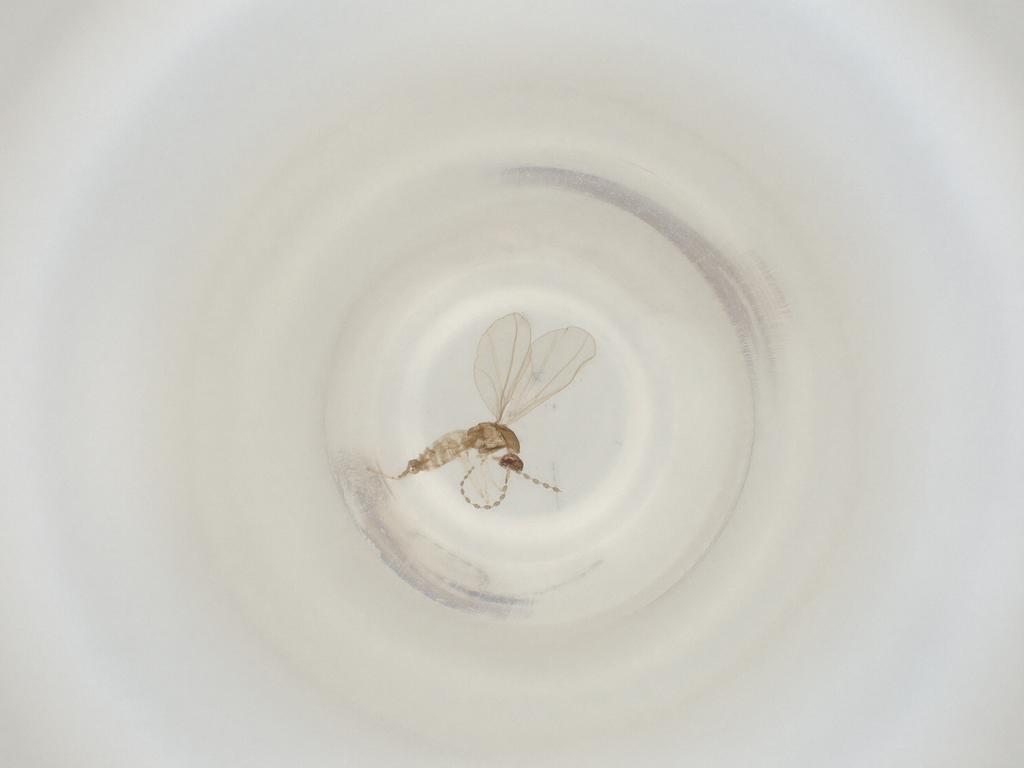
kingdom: Animalia
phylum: Arthropoda
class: Insecta
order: Diptera
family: Cecidomyiidae
